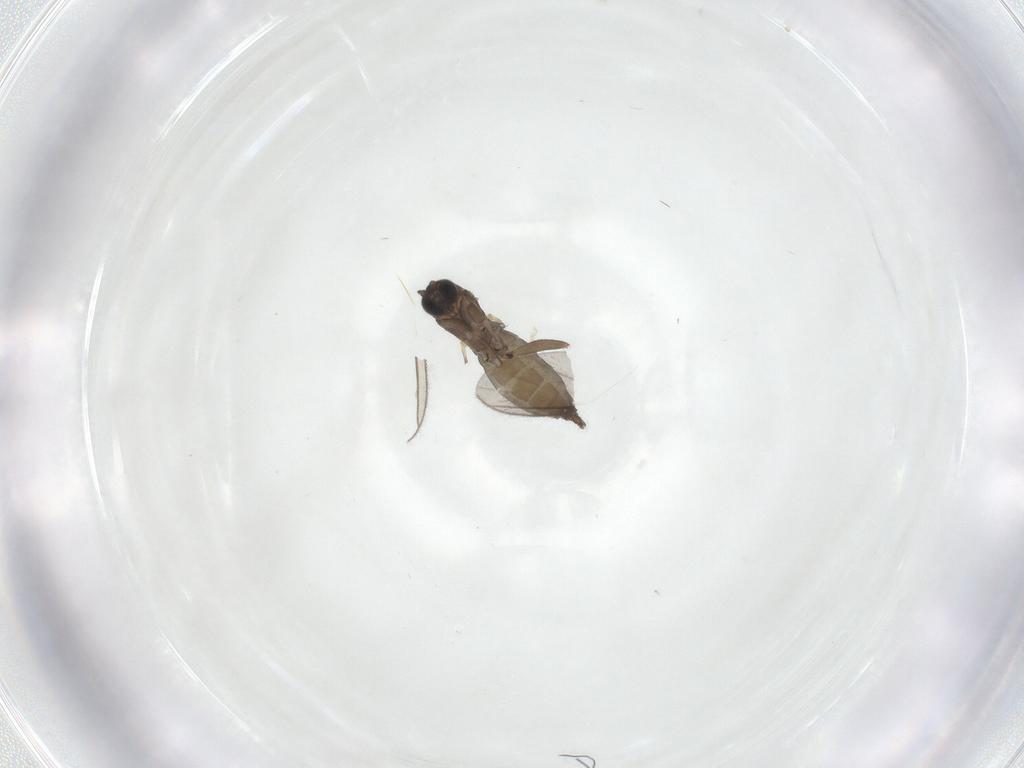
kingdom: Animalia
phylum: Arthropoda
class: Insecta
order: Diptera
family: Sciaridae
